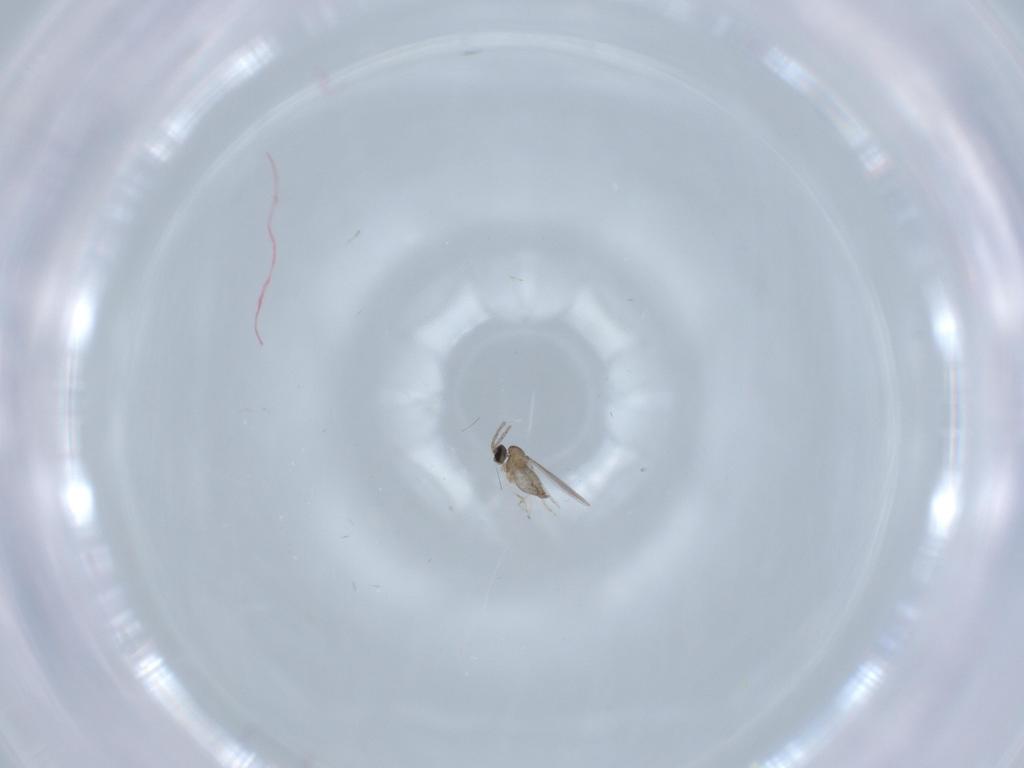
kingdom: Animalia
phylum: Arthropoda
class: Insecta
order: Diptera
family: Cecidomyiidae
